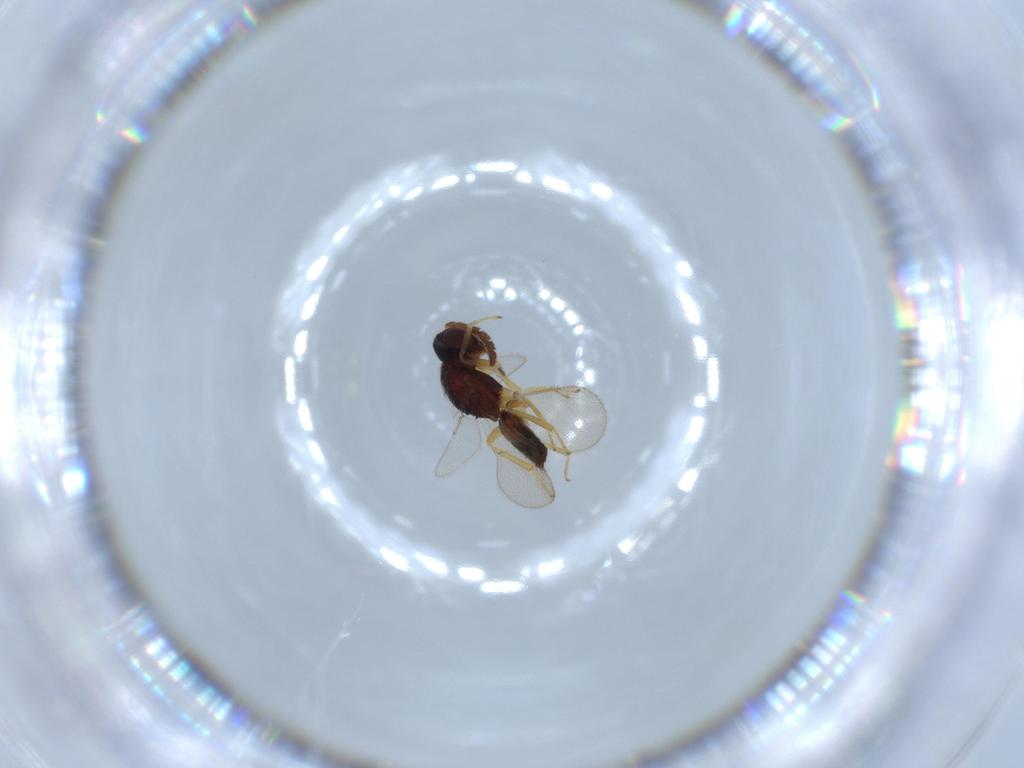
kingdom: Animalia
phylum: Arthropoda
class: Insecta
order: Hymenoptera
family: Eulophidae
